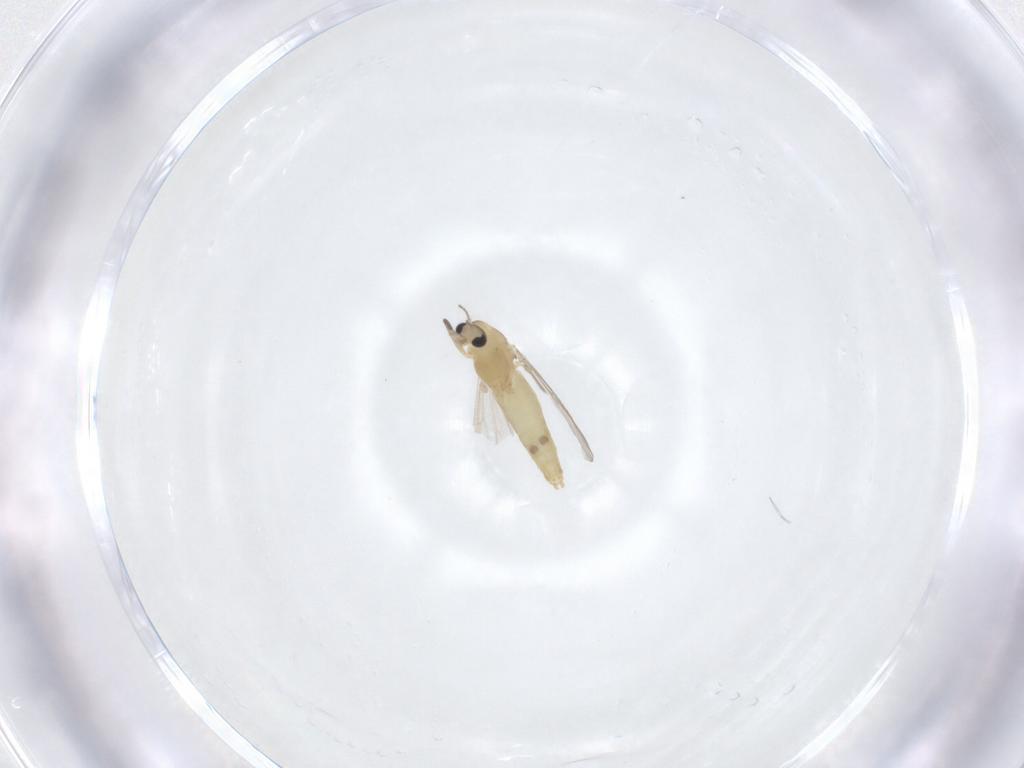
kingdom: Animalia
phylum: Arthropoda
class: Insecta
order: Diptera
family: Chironomidae
